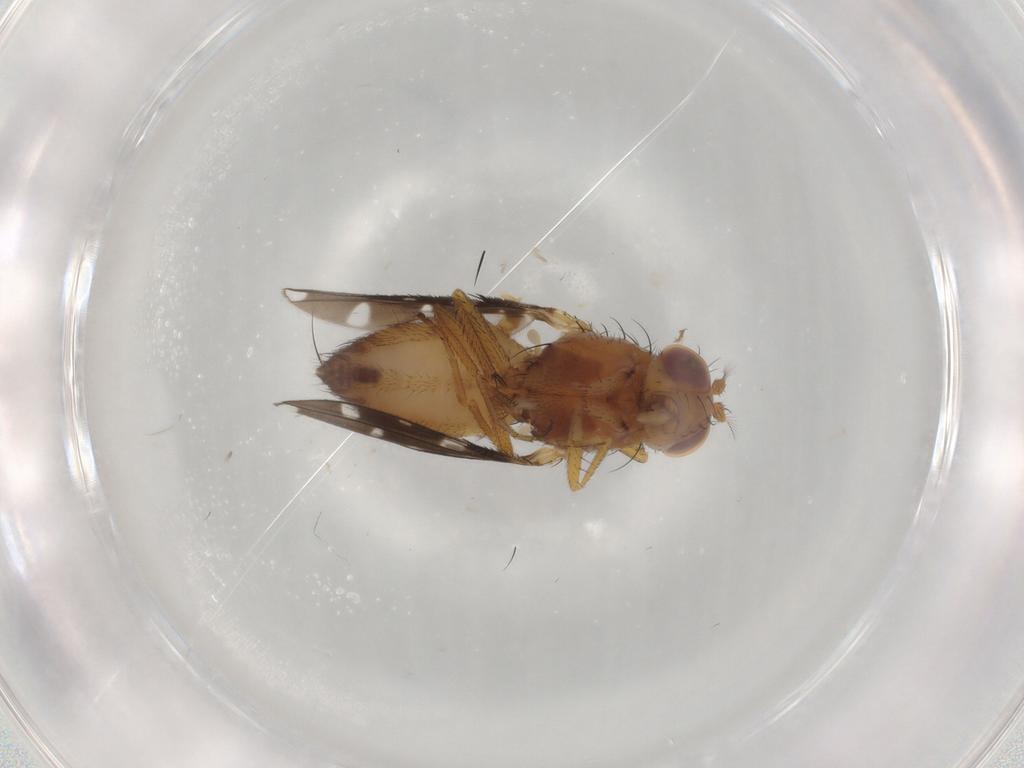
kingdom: Animalia
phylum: Arthropoda
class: Insecta
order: Diptera
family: Ephydridae
